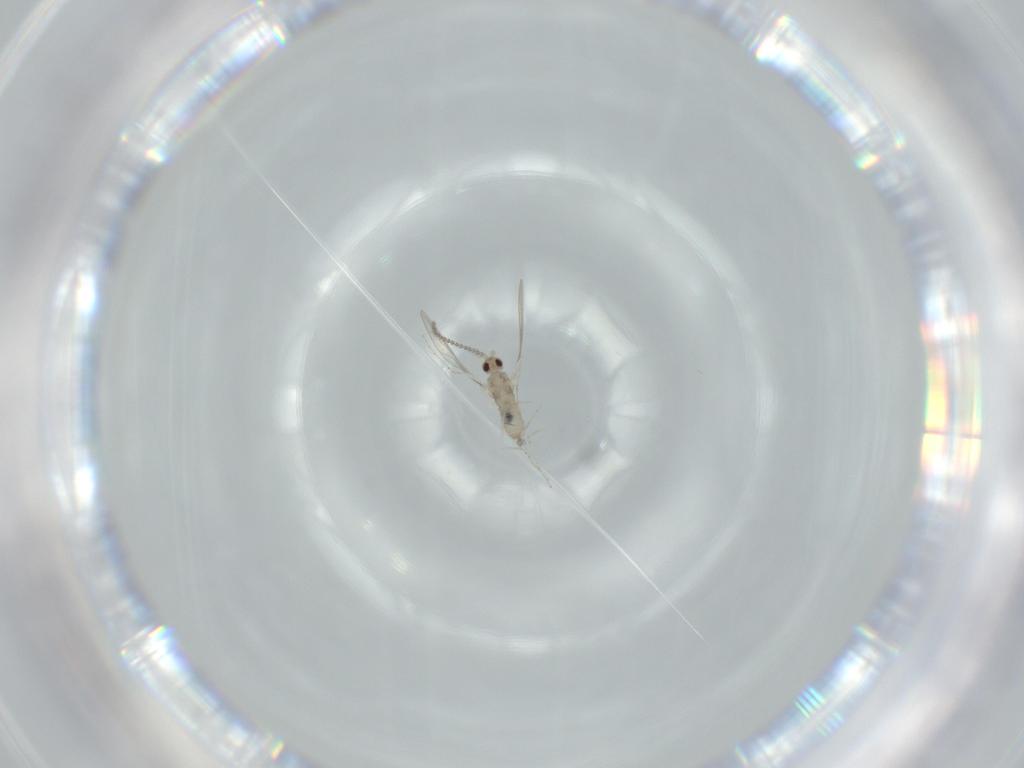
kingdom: Animalia
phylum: Arthropoda
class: Insecta
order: Diptera
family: Cecidomyiidae
